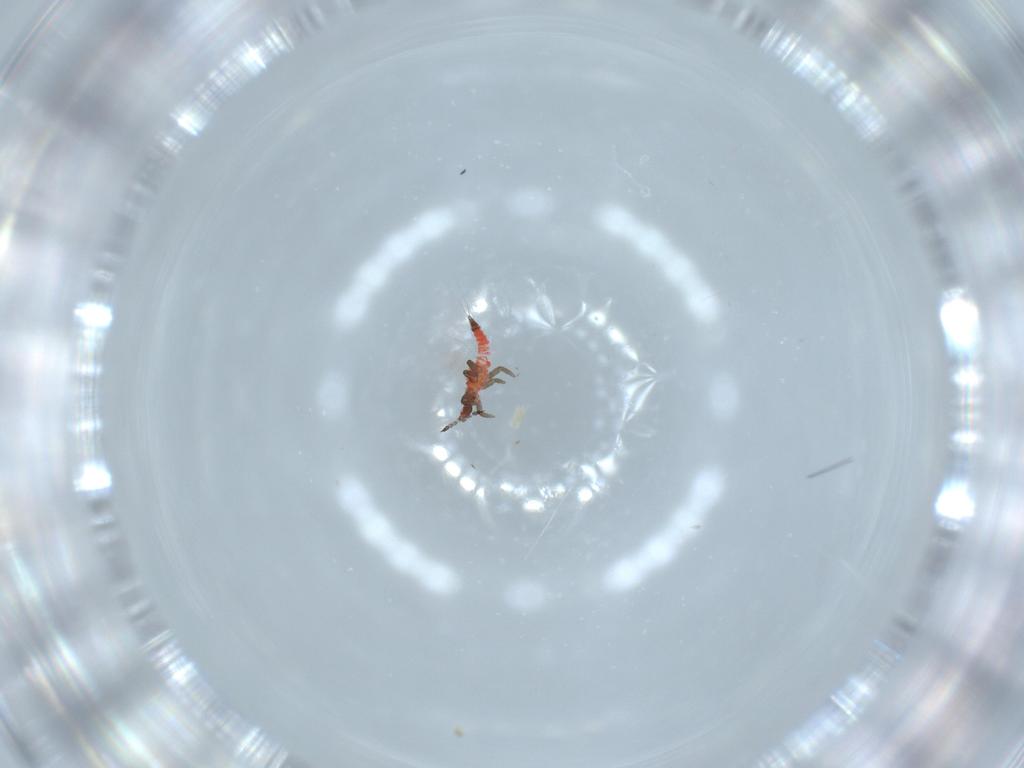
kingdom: Animalia
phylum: Arthropoda
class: Insecta
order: Thysanoptera
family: Phlaeothripidae
